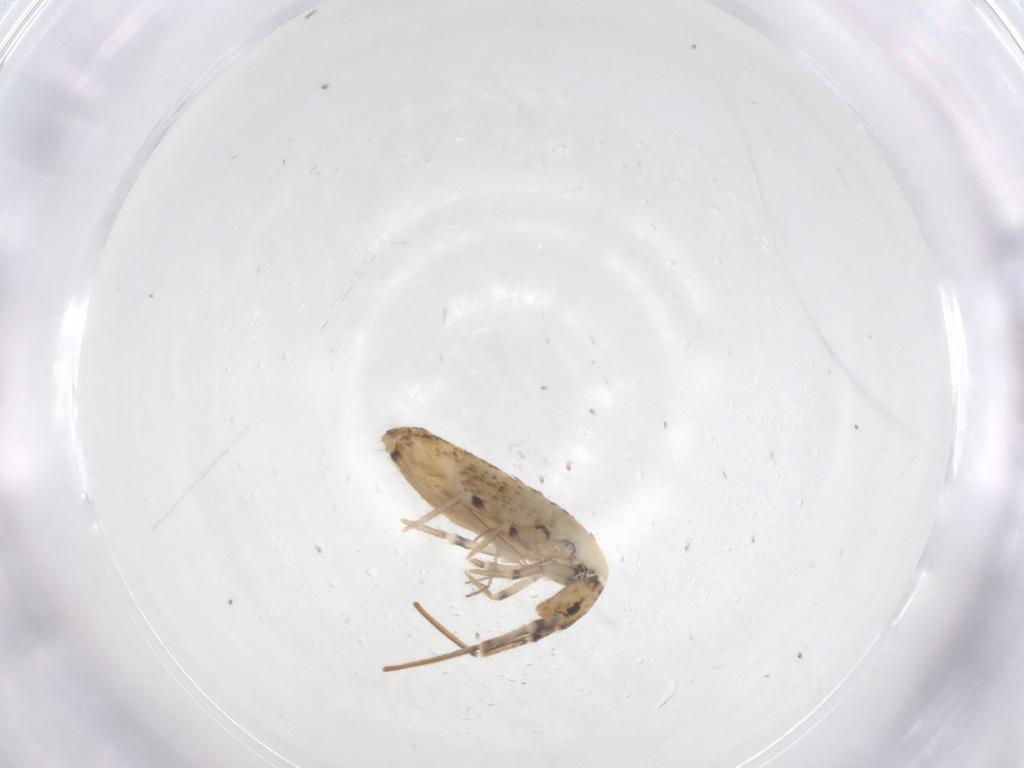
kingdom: Animalia
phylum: Arthropoda
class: Collembola
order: Entomobryomorpha
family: Entomobryidae
